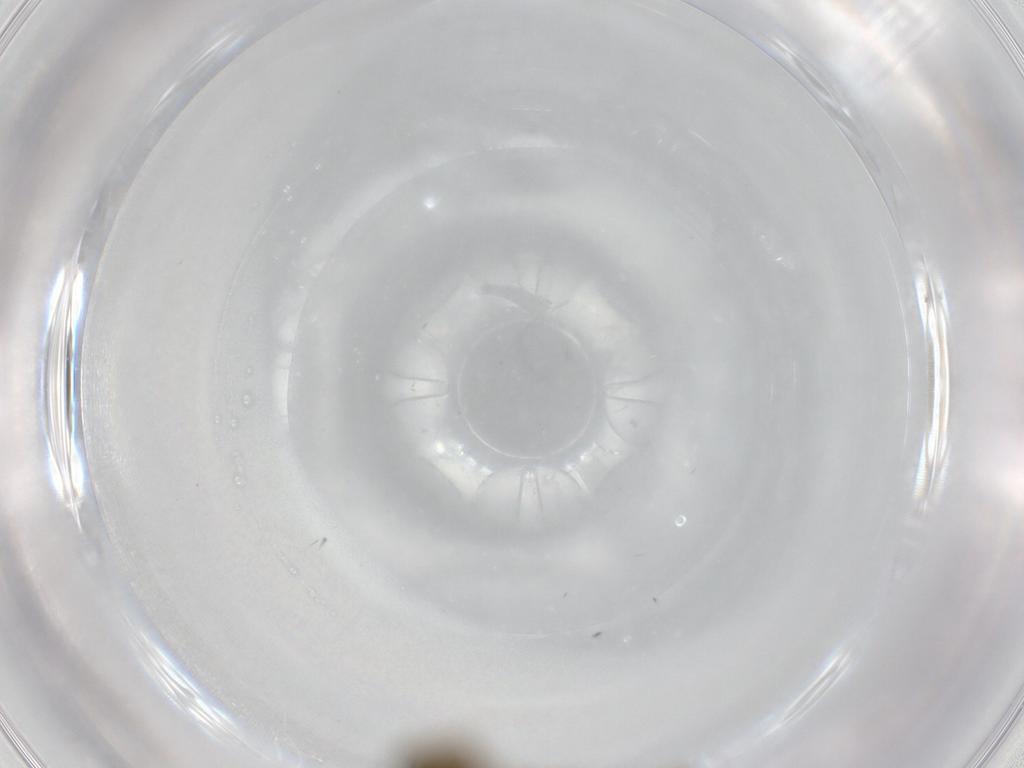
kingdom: Animalia
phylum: Arthropoda
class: Insecta
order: Diptera
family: Chironomidae
